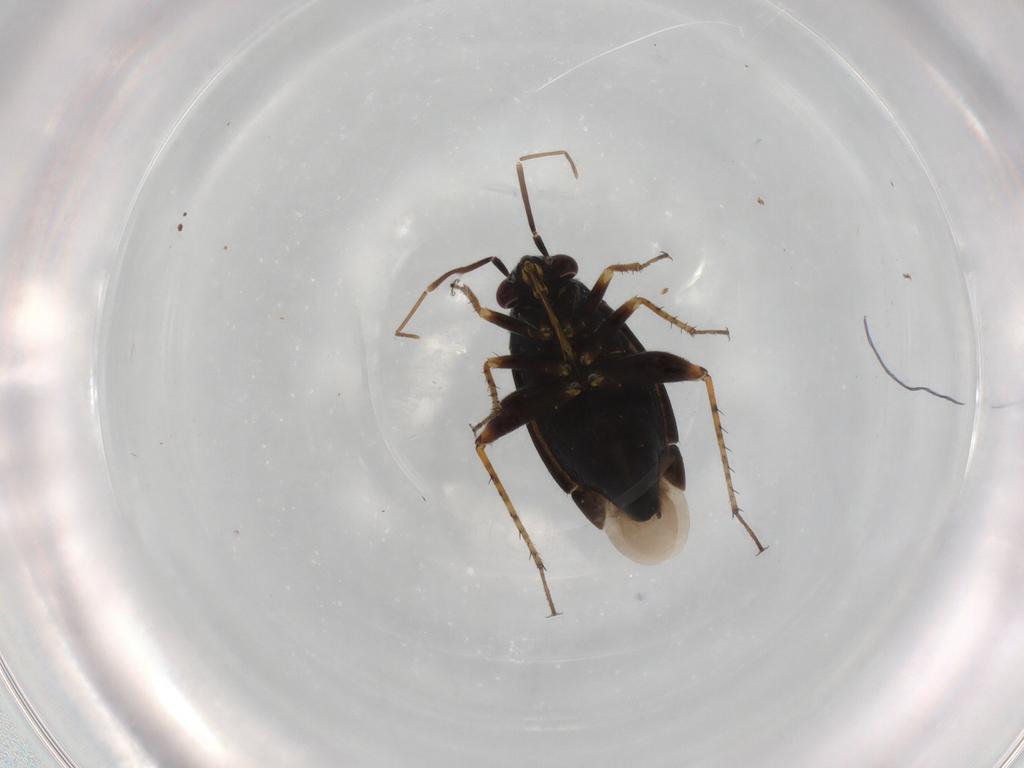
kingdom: Animalia
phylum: Arthropoda
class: Insecta
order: Hemiptera
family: Miridae
